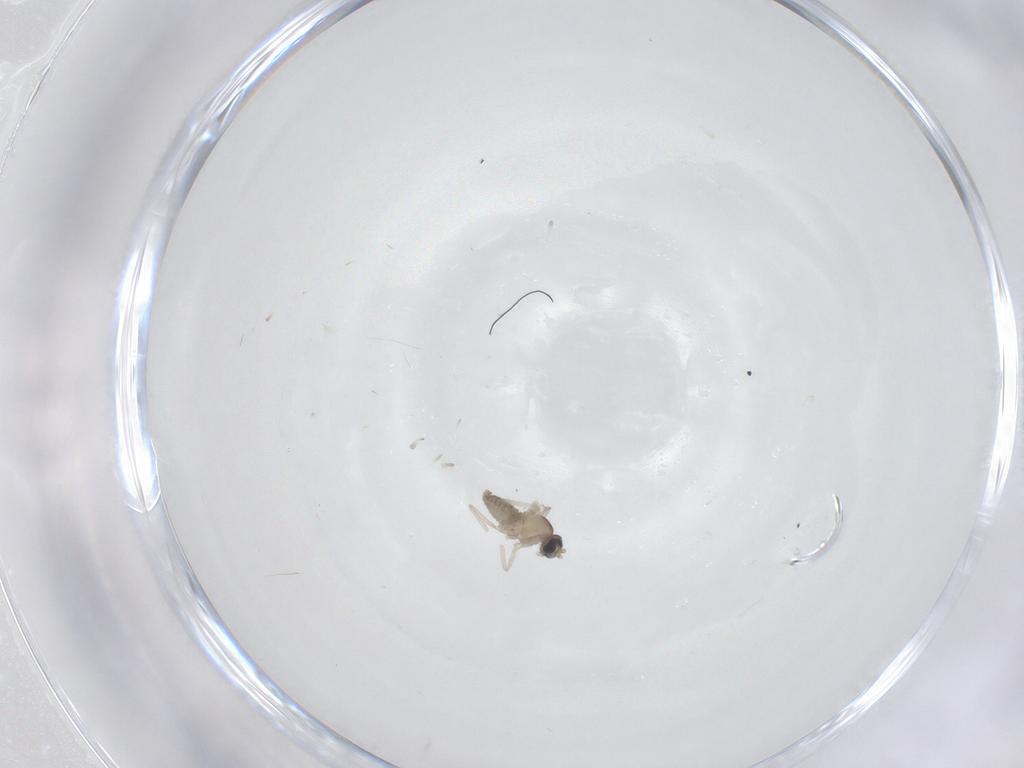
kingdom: Animalia
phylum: Arthropoda
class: Insecta
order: Diptera
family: Cecidomyiidae
